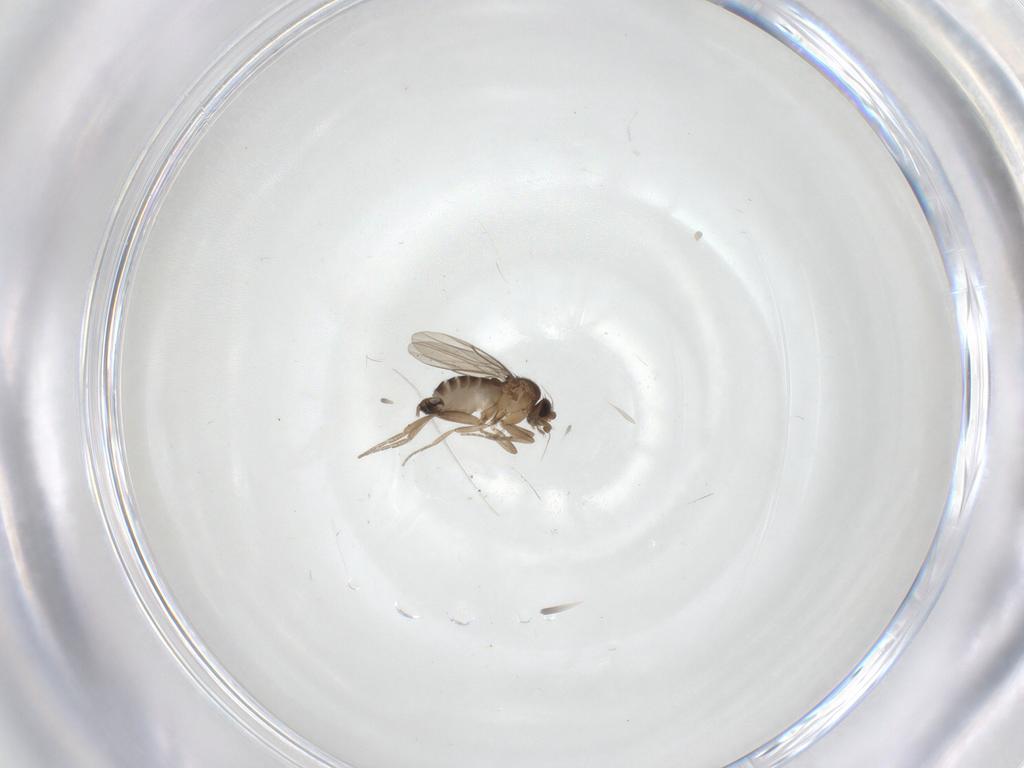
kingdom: Animalia
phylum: Arthropoda
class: Insecta
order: Diptera
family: Phoridae
